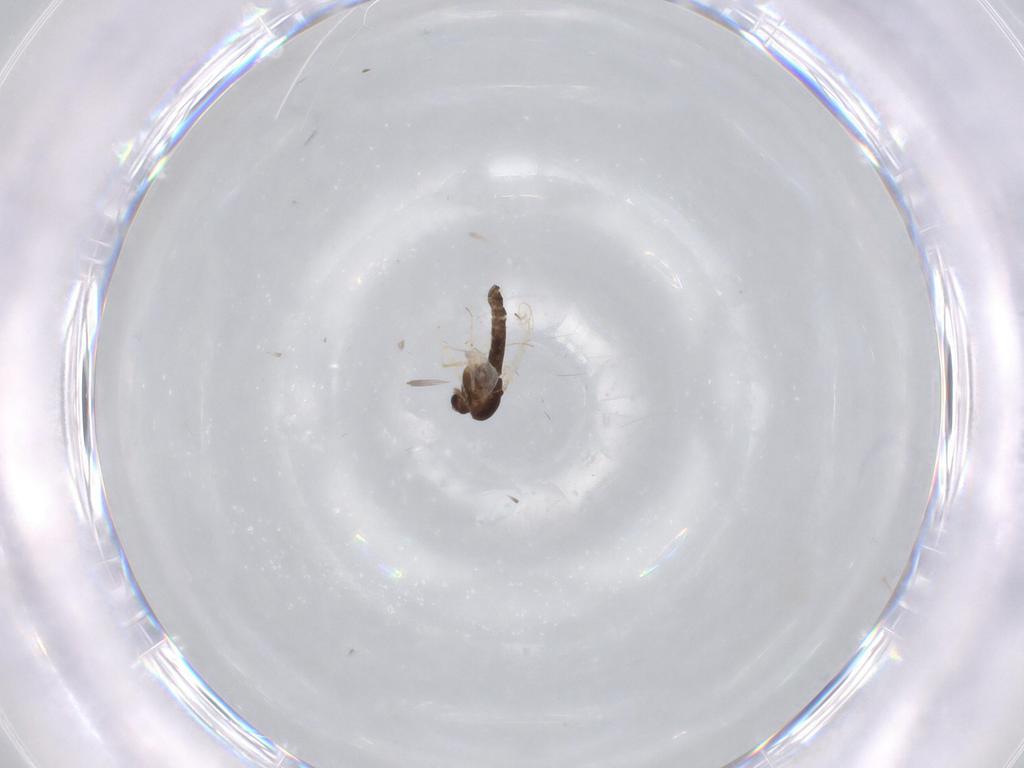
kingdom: Animalia
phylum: Arthropoda
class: Insecta
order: Diptera
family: Chironomidae
